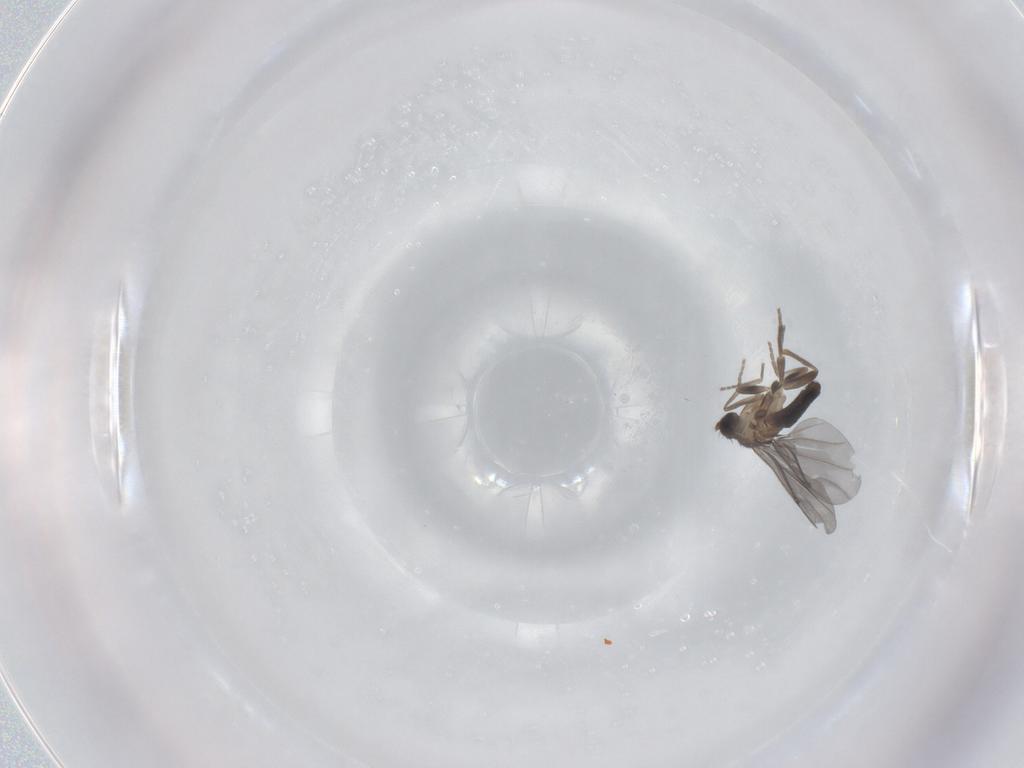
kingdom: Animalia
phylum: Arthropoda
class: Insecta
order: Diptera
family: Phoridae
